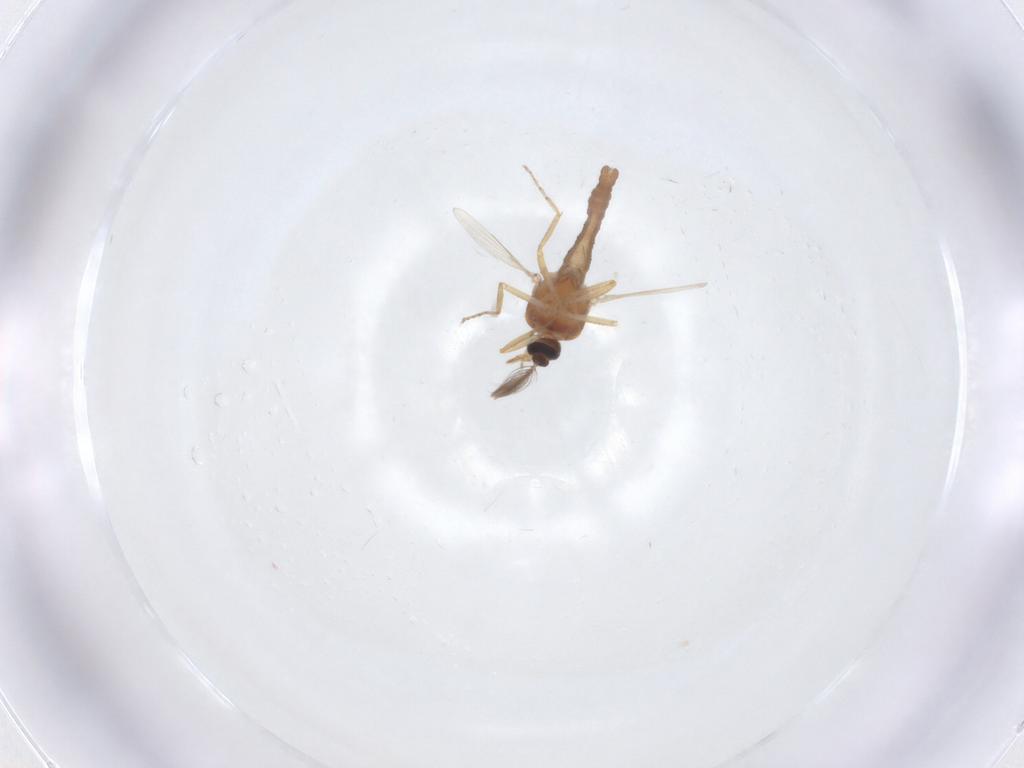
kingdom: Animalia
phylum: Arthropoda
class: Insecta
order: Diptera
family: Ceratopogonidae
